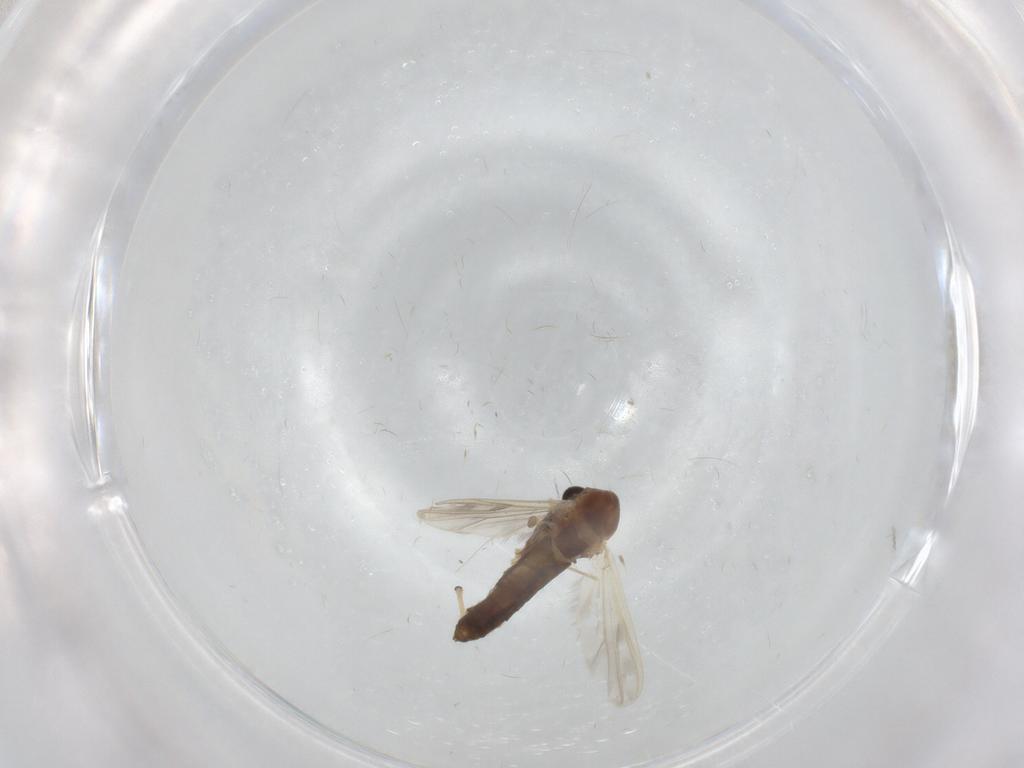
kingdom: Animalia
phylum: Arthropoda
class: Insecta
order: Diptera
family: Chironomidae
